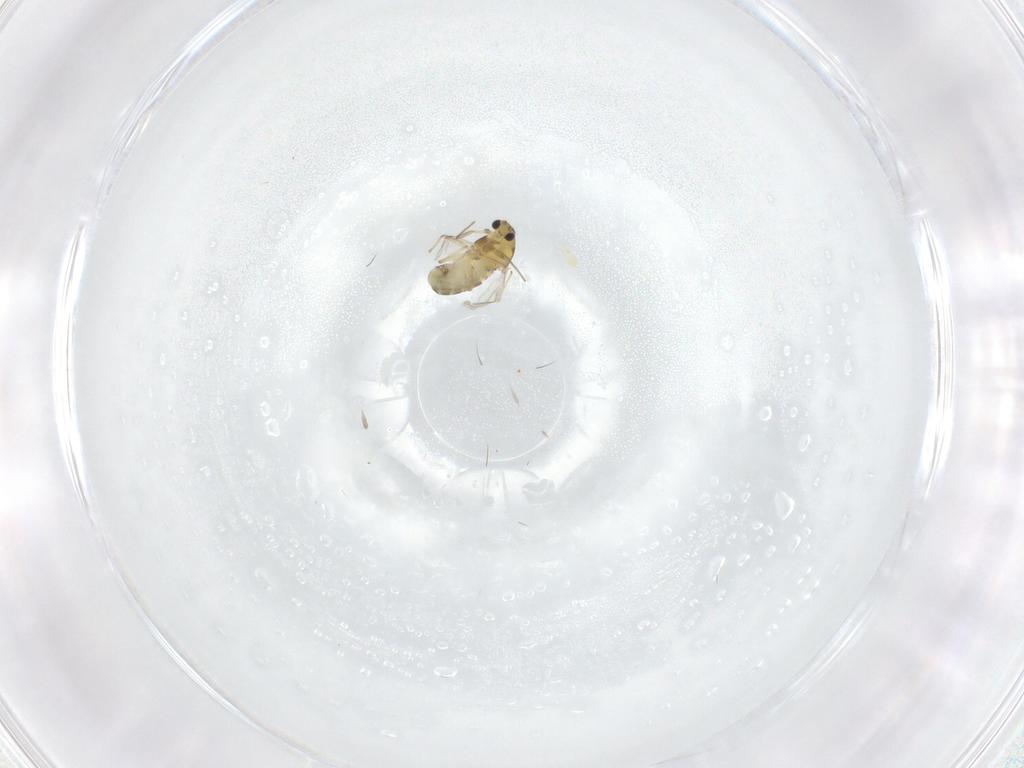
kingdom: Animalia
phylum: Arthropoda
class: Insecta
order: Diptera
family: Chironomidae
